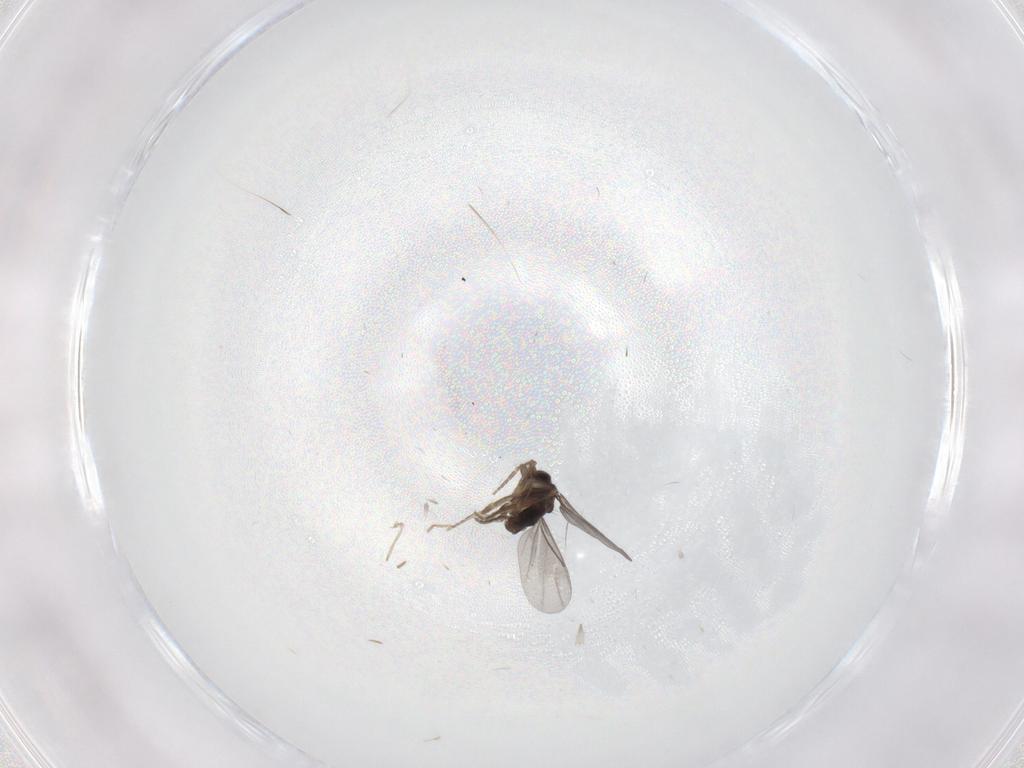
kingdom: Animalia
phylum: Arthropoda
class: Insecta
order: Diptera
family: Cecidomyiidae
